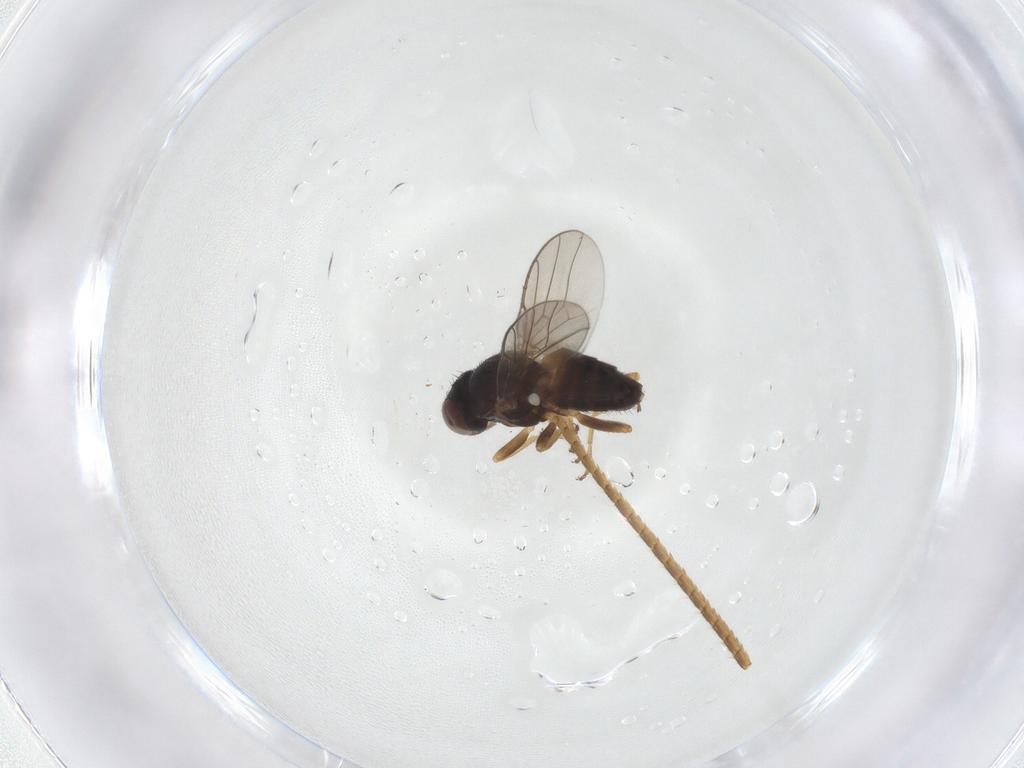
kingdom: Animalia
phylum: Arthropoda
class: Insecta
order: Diptera
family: Chloropidae
